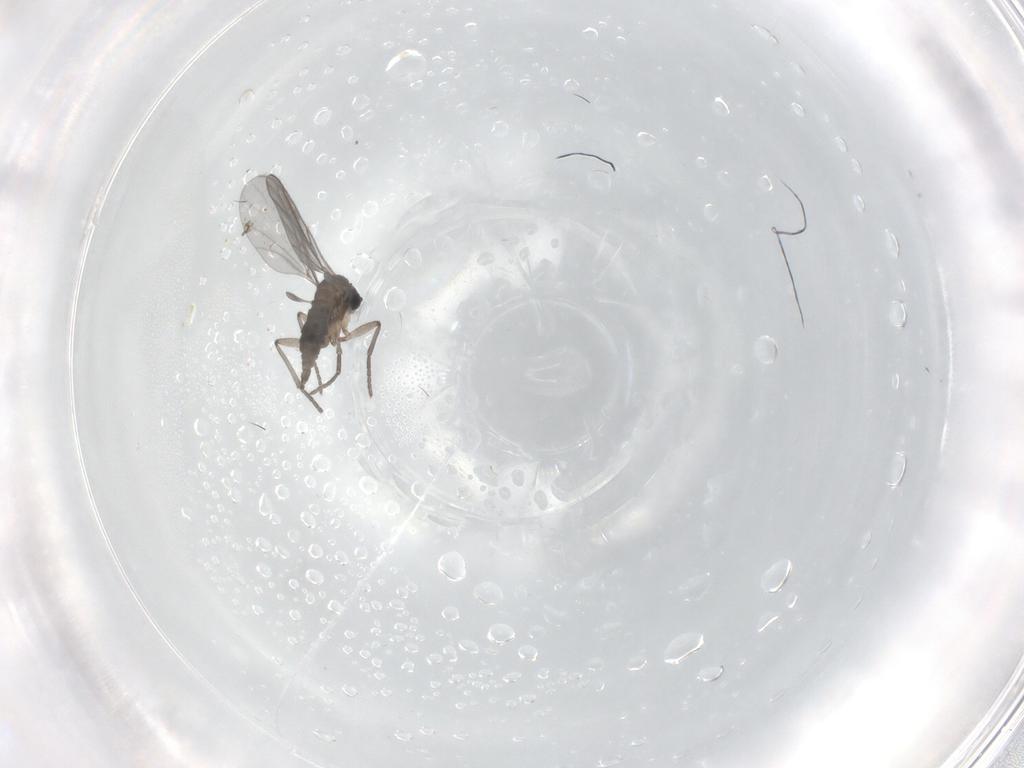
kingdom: Animalia
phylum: Arthropoda
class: Insecta
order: Diptera
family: Sciaridae
